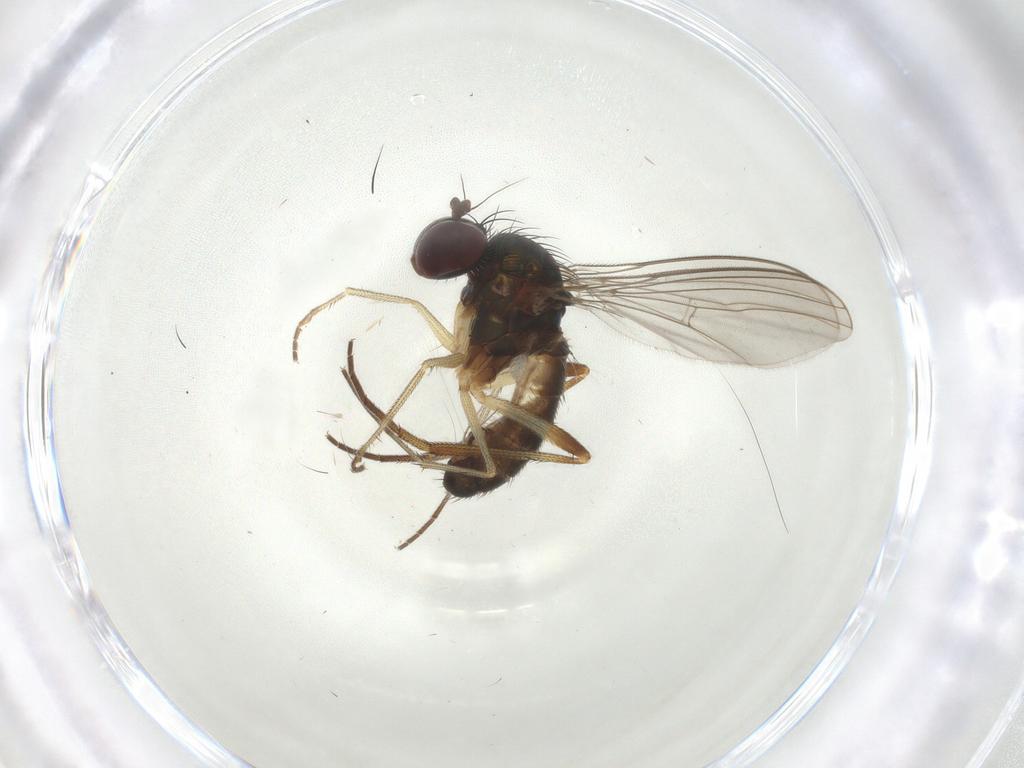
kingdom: Animalia
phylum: Arthropoda
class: Insecta
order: Diptera
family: Dolichopodidae
